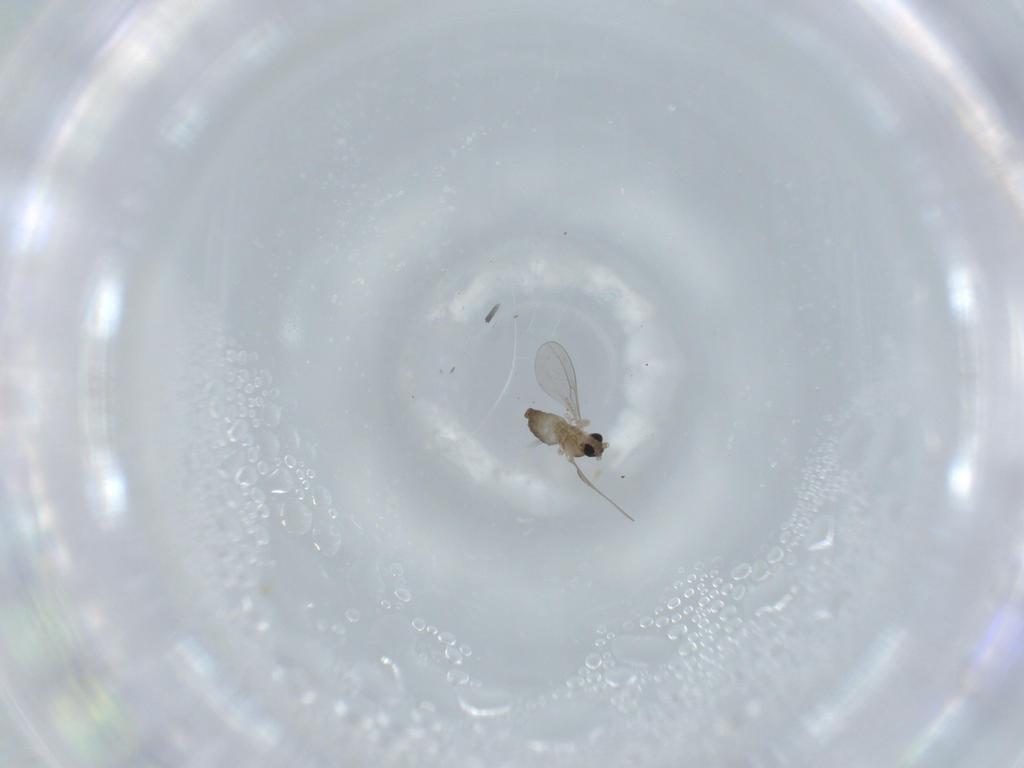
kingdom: Animalia
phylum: Arthropoda
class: Insecta
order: Diptera
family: Cecidomyiidae
